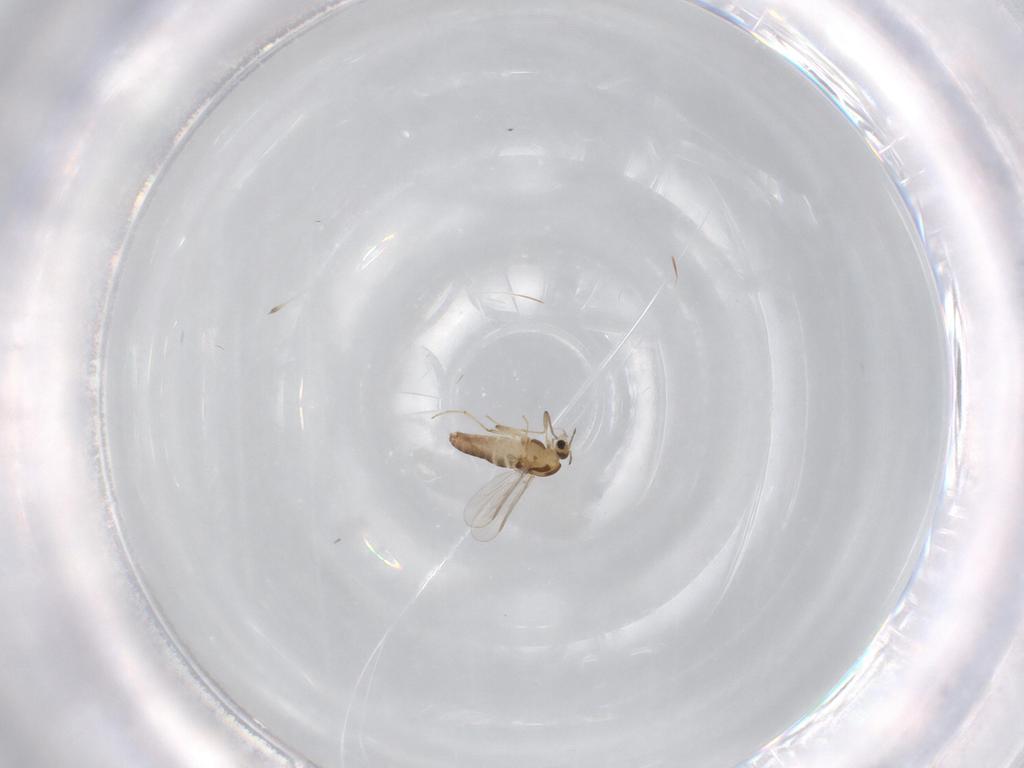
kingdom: Animalia
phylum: Arthropoda
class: Insecta
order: Diptera
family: Chironomidae
